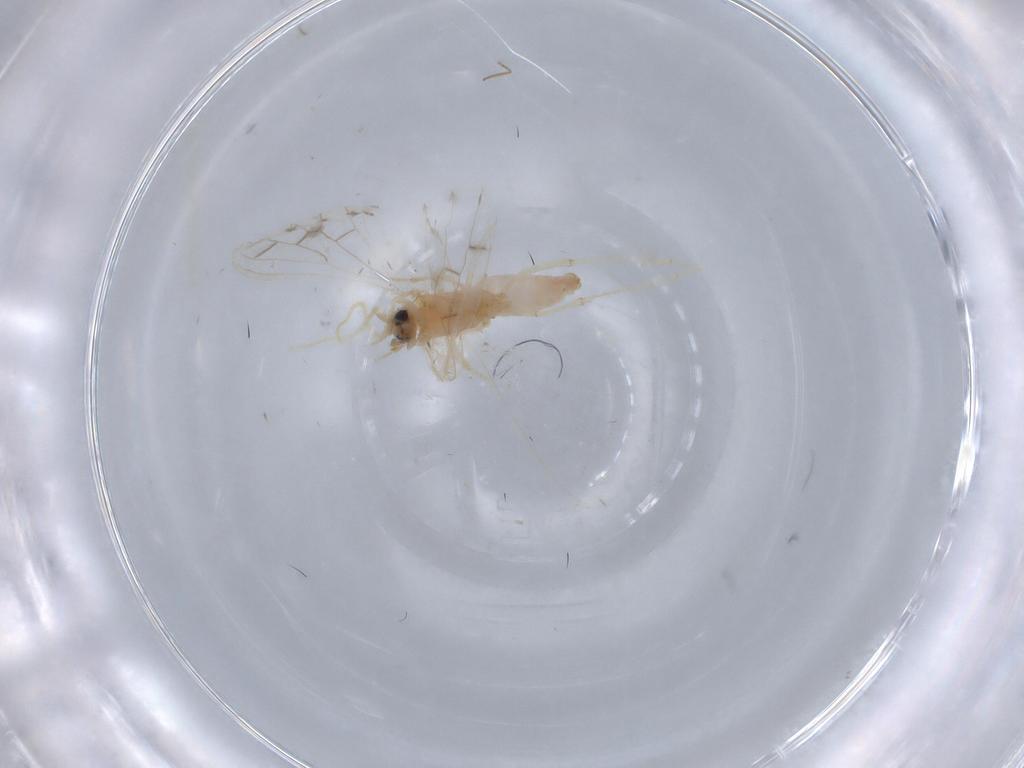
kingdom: Animalia
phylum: Arthropoda
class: Insecta
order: Neuroptera
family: Coniopterygidae
